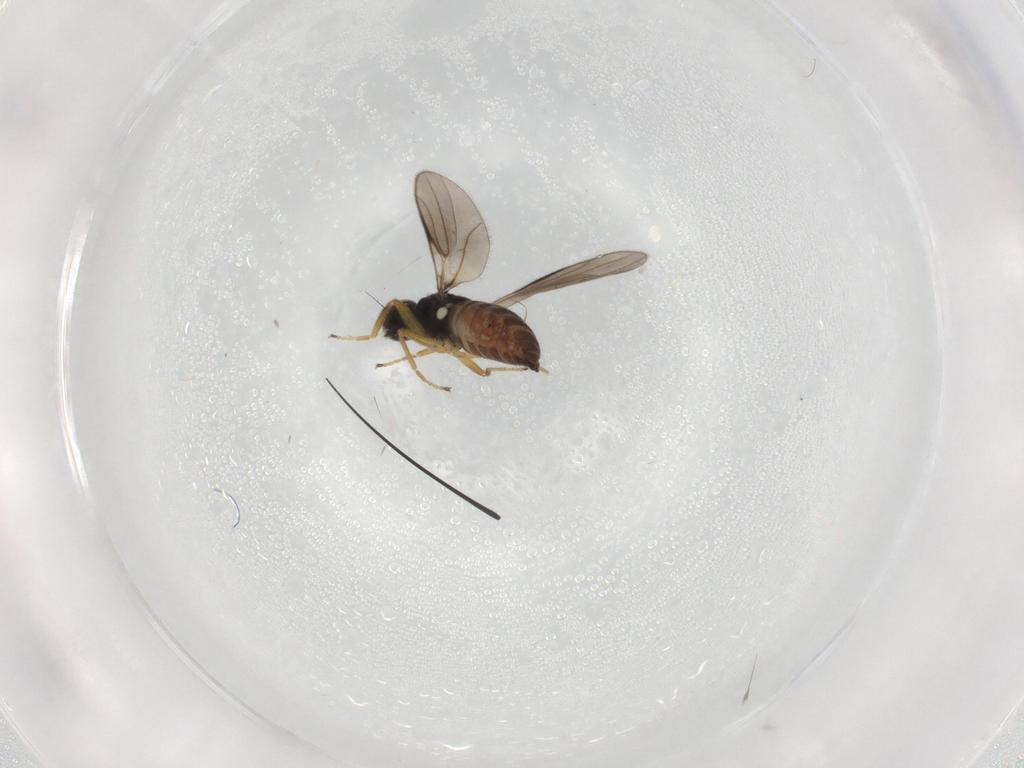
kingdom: Animalia
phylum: Arthropoda
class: Insecta
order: Diptera
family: Hybotidae
